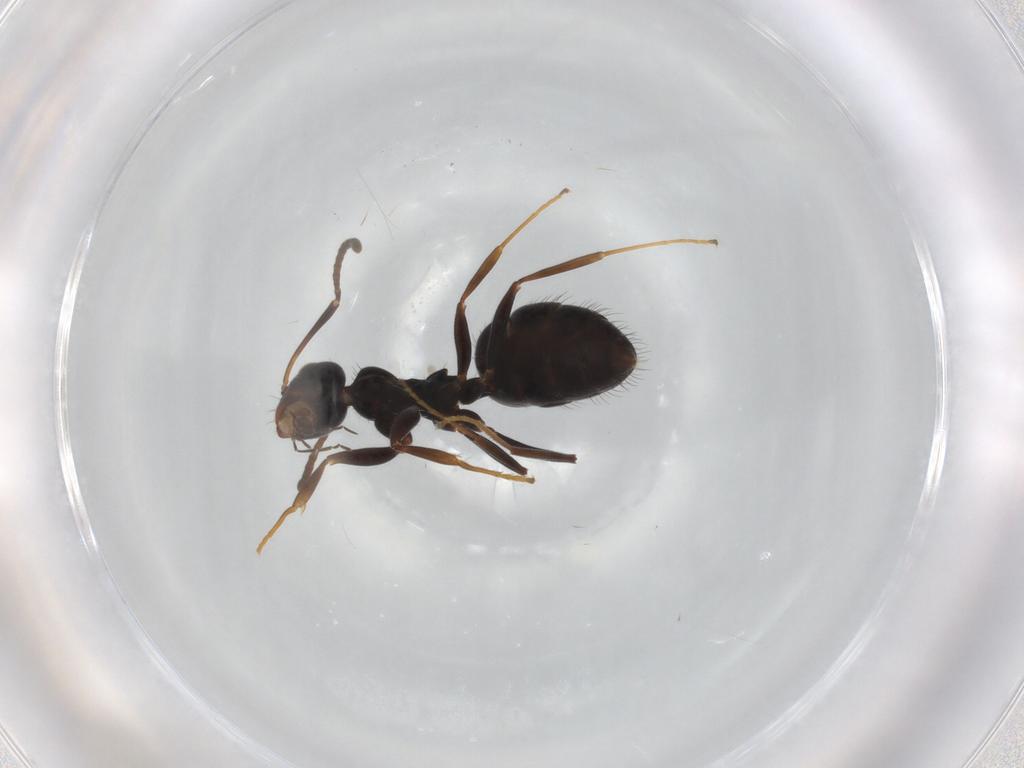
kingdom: Animalia
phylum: Arthropoda
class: Insecta
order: Hymenoptera
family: Formicidae
